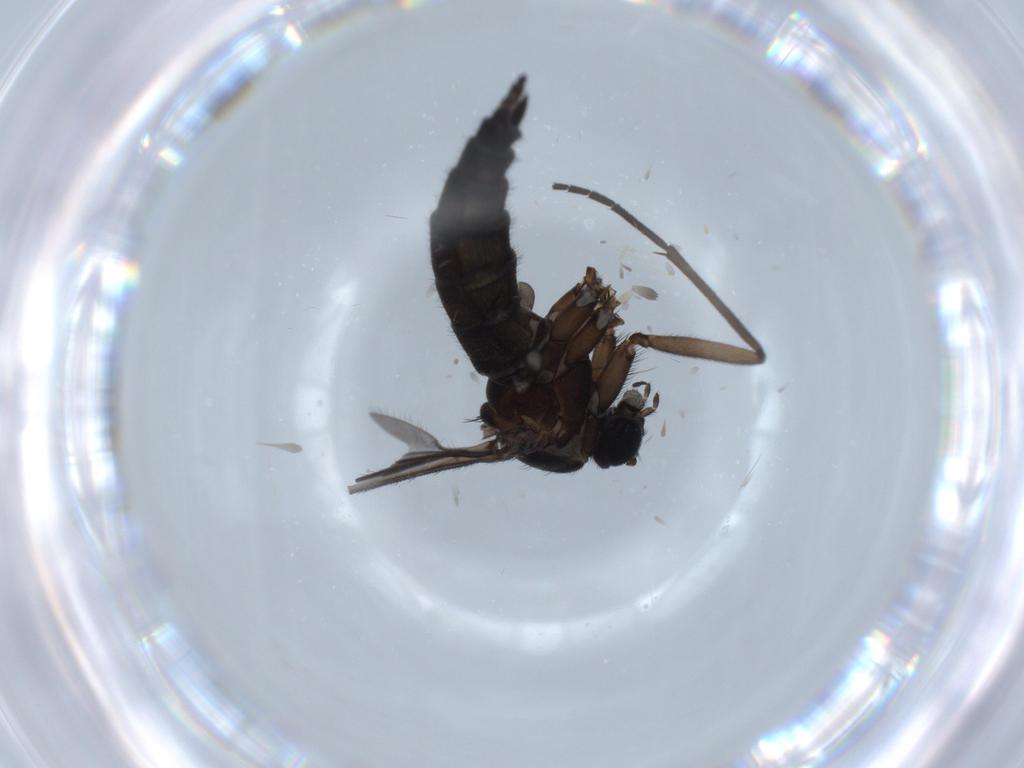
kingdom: Animalia
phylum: Arthropoda
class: Insecta
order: Diptera
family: Sciaridae
